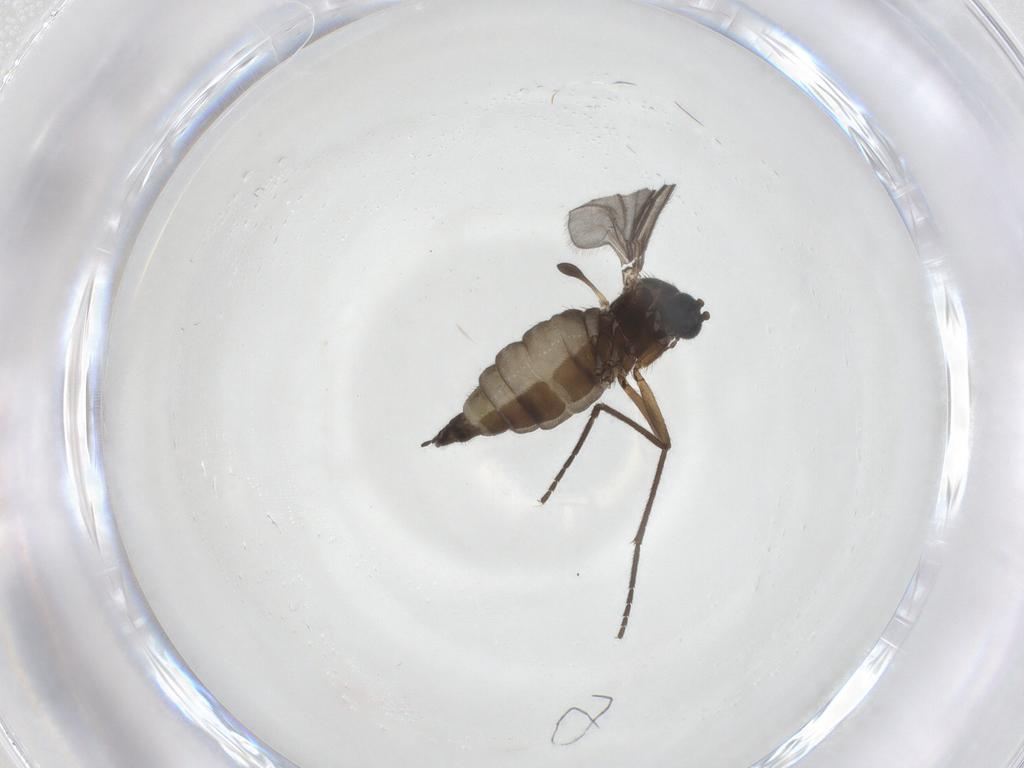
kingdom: Animalia
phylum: Arthropoda
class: Insecta
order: Diptera
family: Sciaridae
